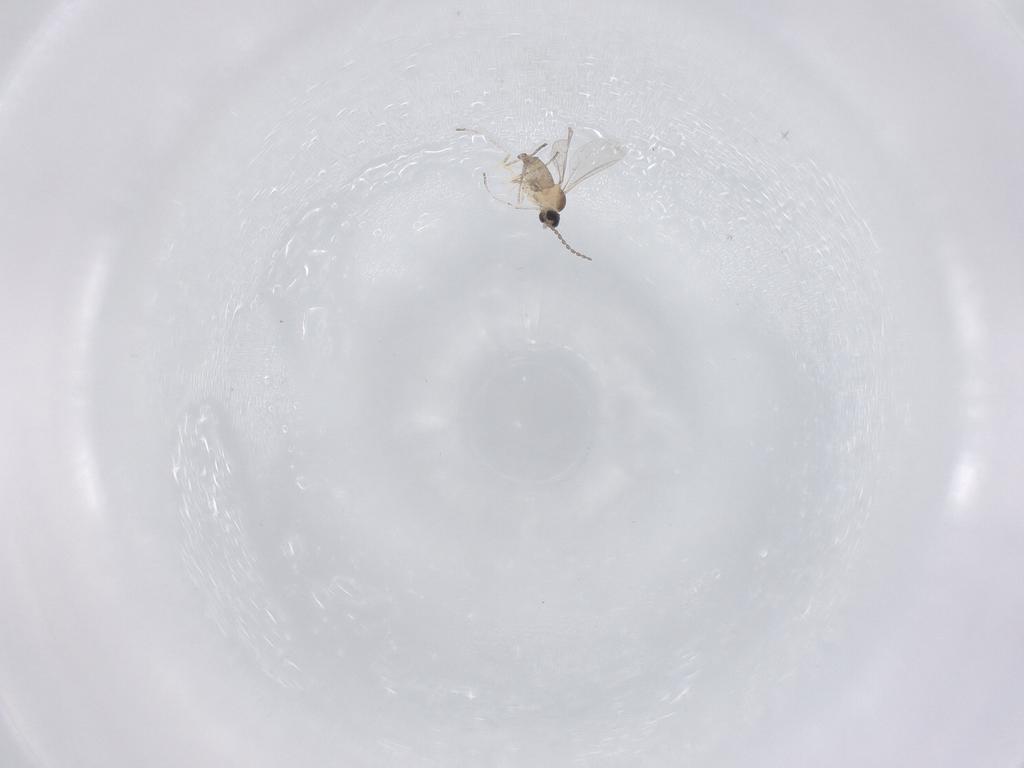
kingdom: Animalia
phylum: Arthropoda
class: Insecta
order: Diptera
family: Cecidomyiidae
